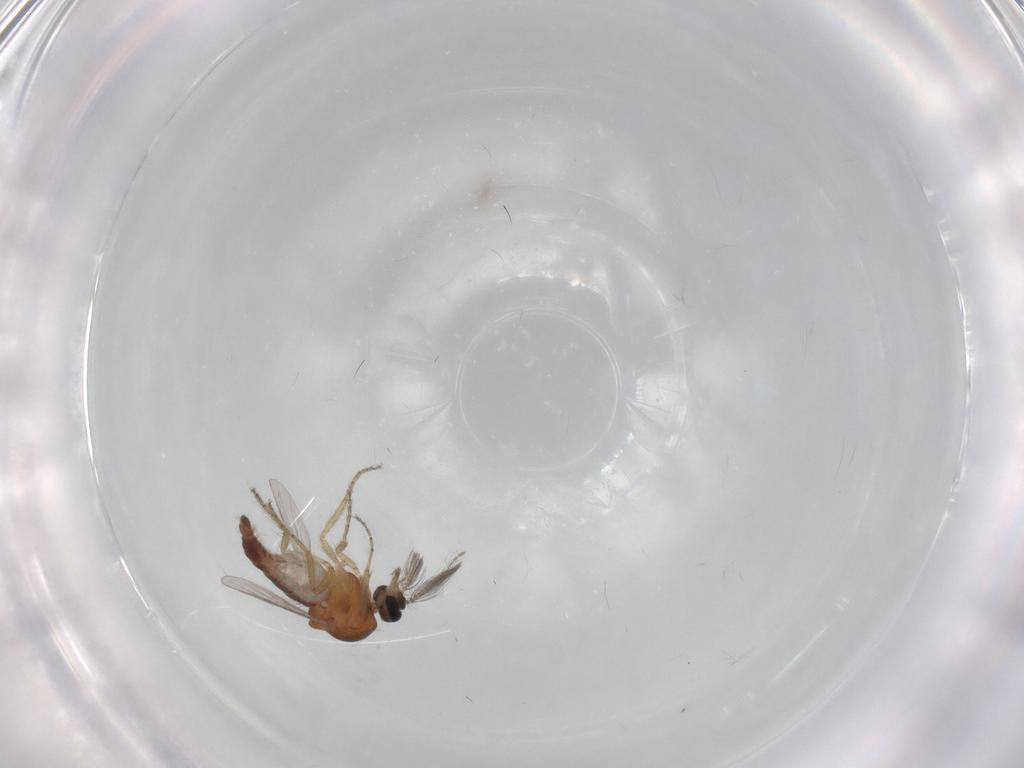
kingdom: Animalia
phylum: Arthropoda
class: Insecta
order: Diptera
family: Ceratopogonidae
